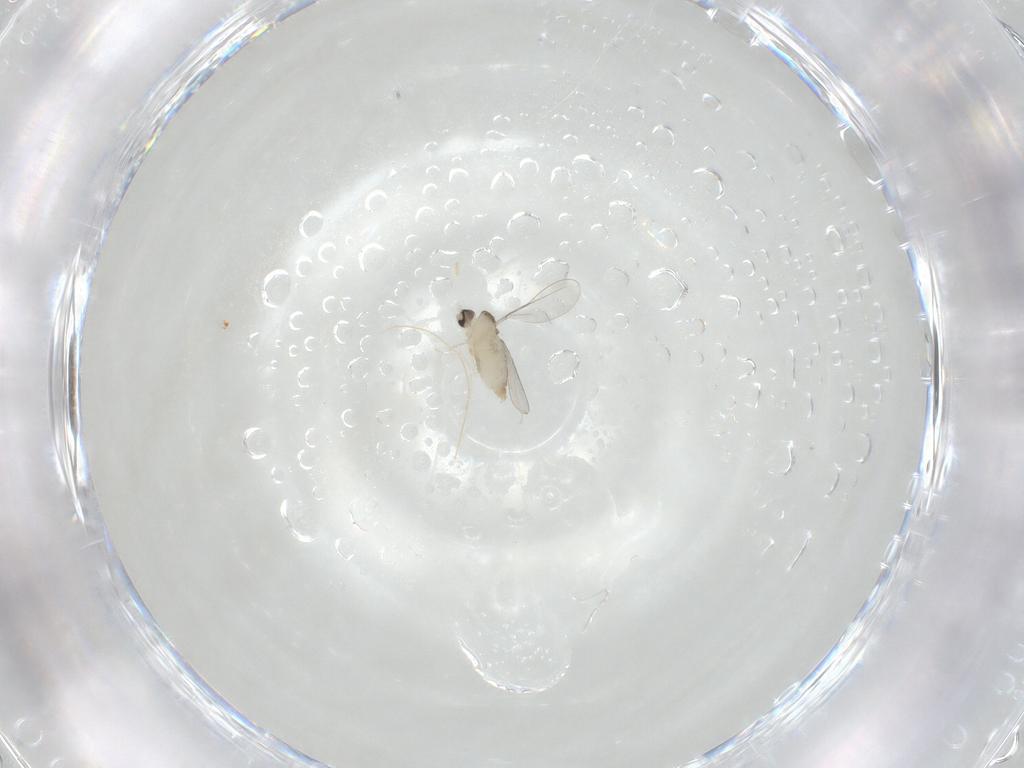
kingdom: Animalia
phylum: Arthropoda
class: Insecta
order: Diptera
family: Cecidomyiidae
